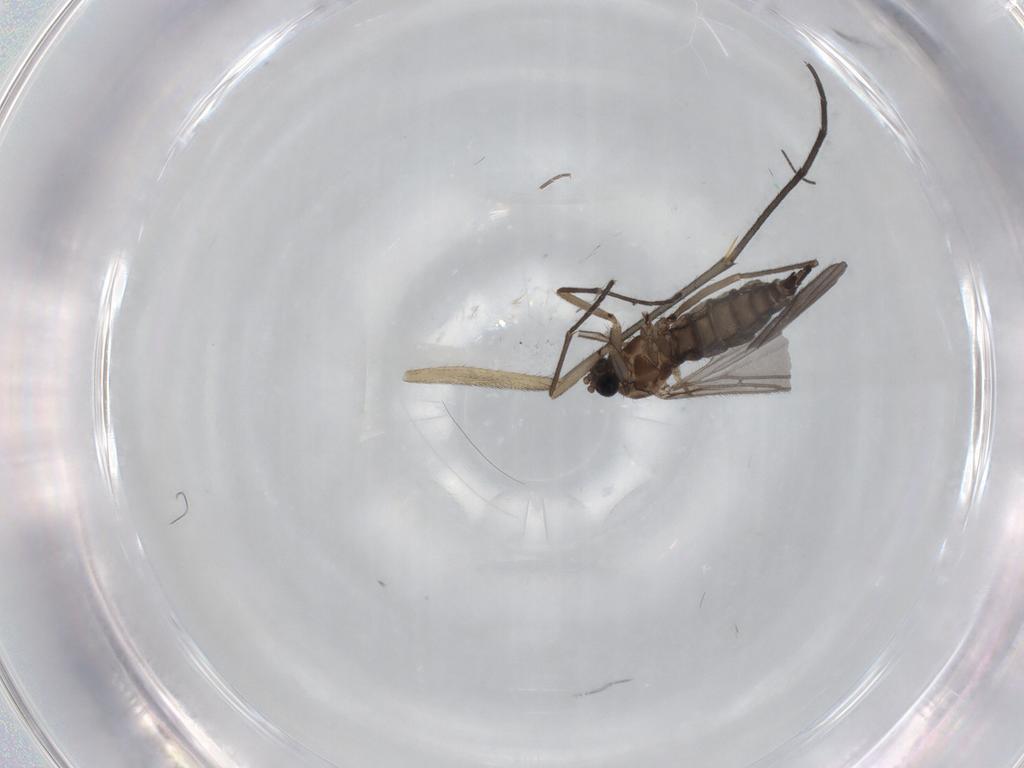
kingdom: Animalia
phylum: Arthropoda
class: Insecta
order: Diptera
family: Sciaridae
